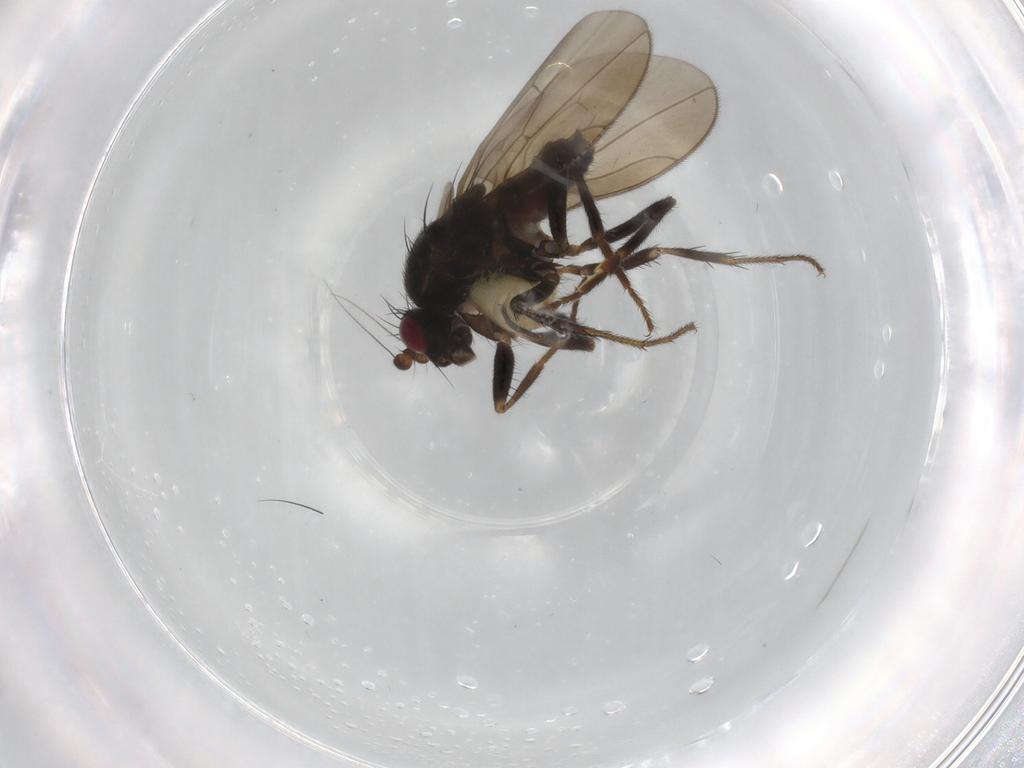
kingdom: Animalia
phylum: Arthropoda
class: Insecta
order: Diptera
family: Sphaeroceridae
